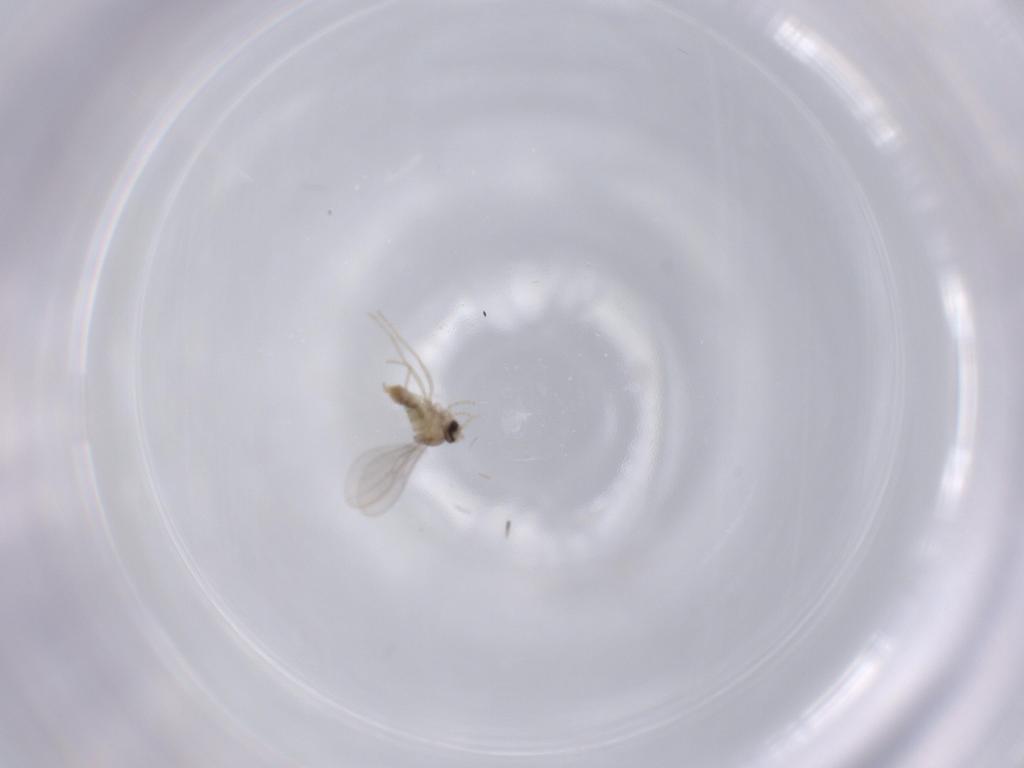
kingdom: Animalia
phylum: Arthropoda
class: Insecta
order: Diptera
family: Cecidomyiidae
